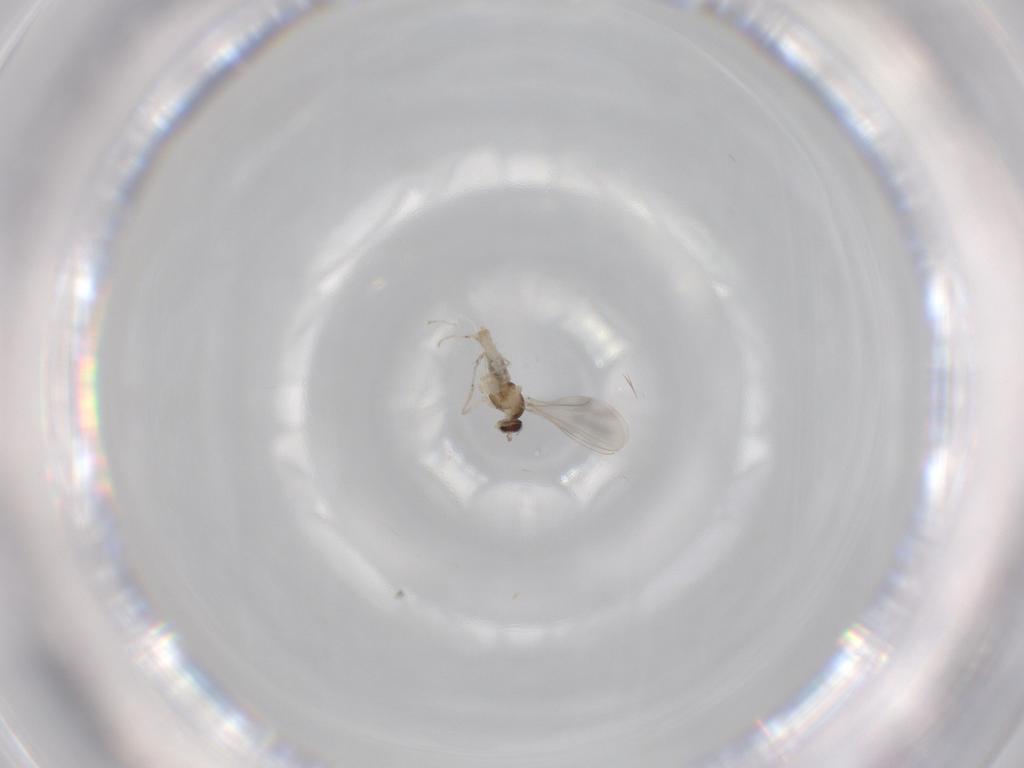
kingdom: Animalia
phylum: Arthropoda
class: Insecta
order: Diptera
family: Cecidomyiidae
